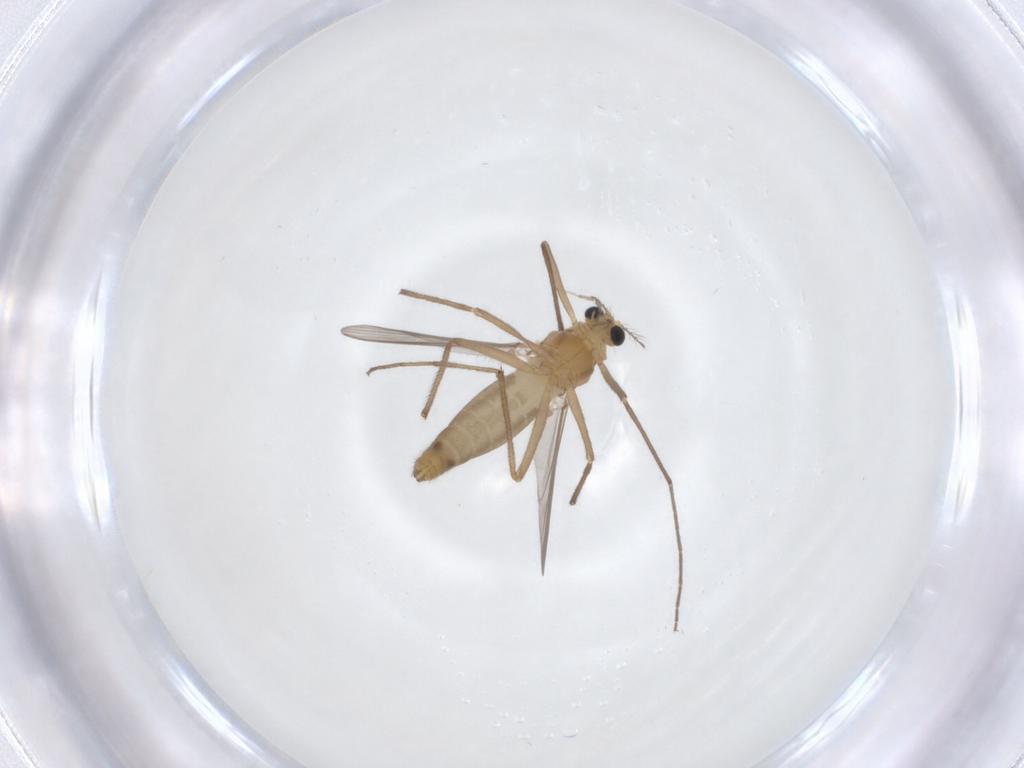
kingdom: Animalia
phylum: Arthropoda
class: Insecta
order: Diptera
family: Chironomidae
